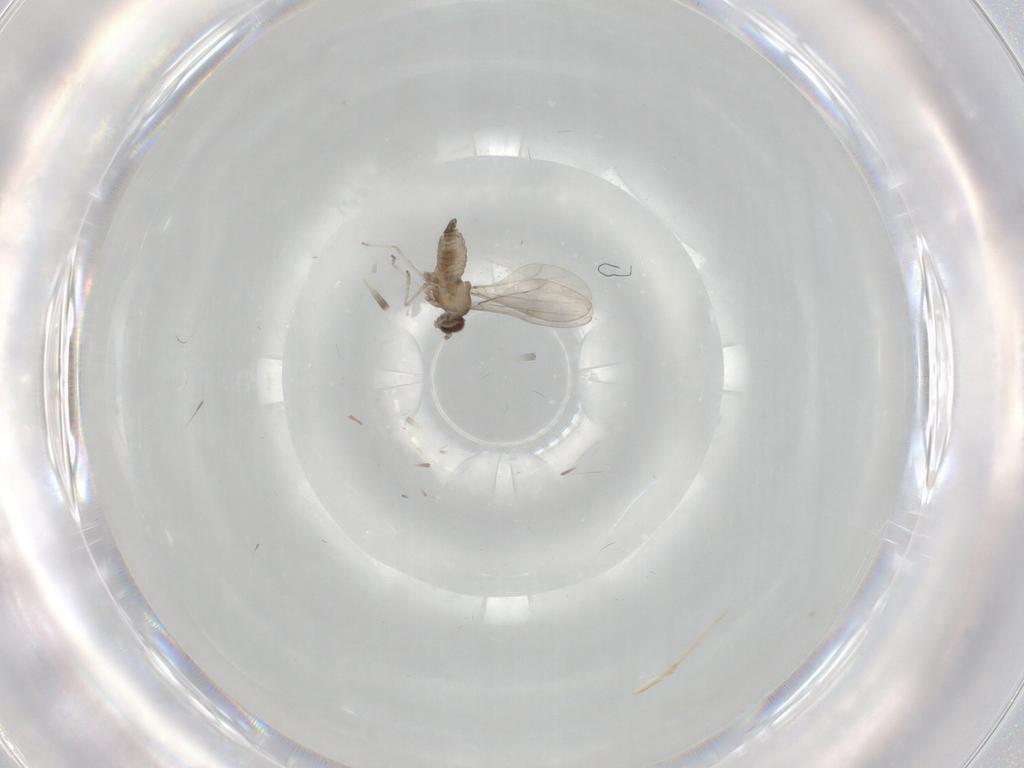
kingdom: Animalia
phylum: Arthropoda
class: Insecta
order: Diptera
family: Cecidomyiidae
